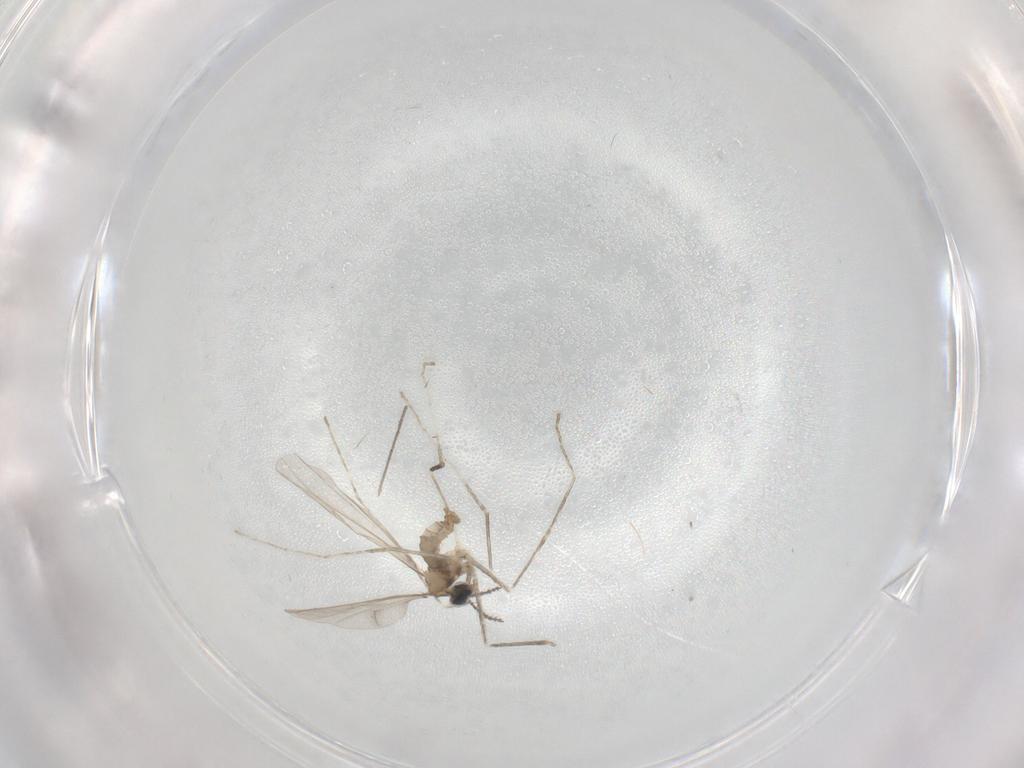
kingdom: Animalia
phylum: Arthropoda
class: Insecta
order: Diptera
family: Cecidomyiidae
